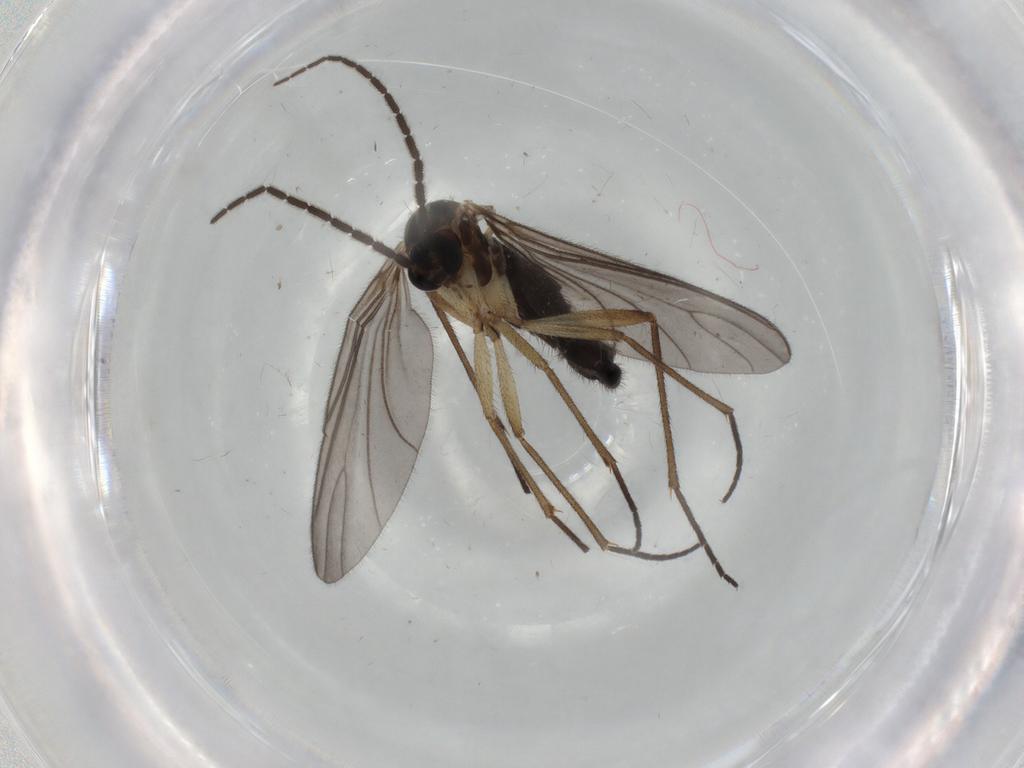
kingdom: Animalia
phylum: Arthropoda
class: Insecta
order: Diptera
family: Sciaridae
